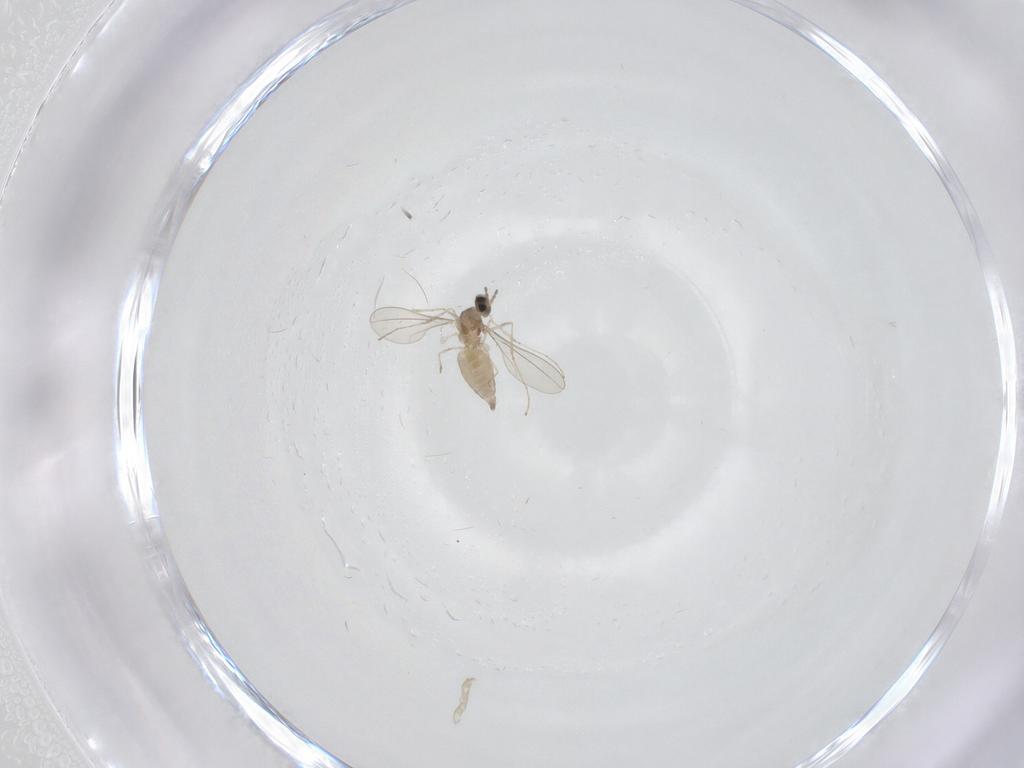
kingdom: Animalia
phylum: Arthropoda
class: Insecta
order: Diptera
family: Cecidomyiidae
